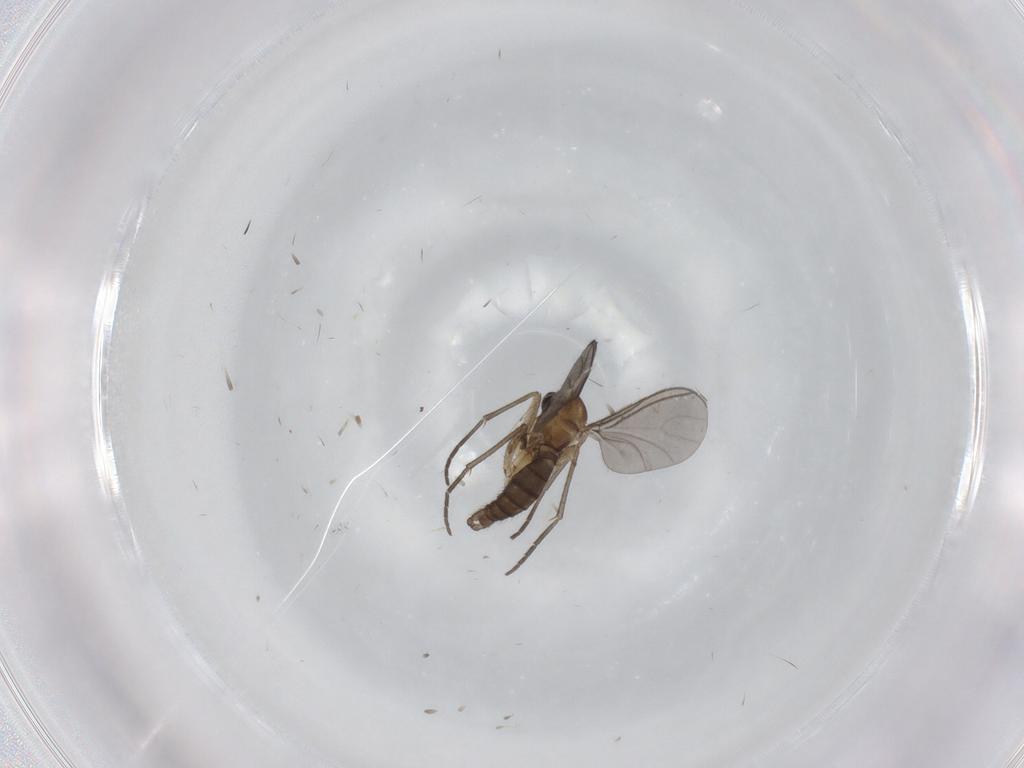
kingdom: Animalia
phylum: Arthropoda
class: Insecta
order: Diptera
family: Sciaridae
